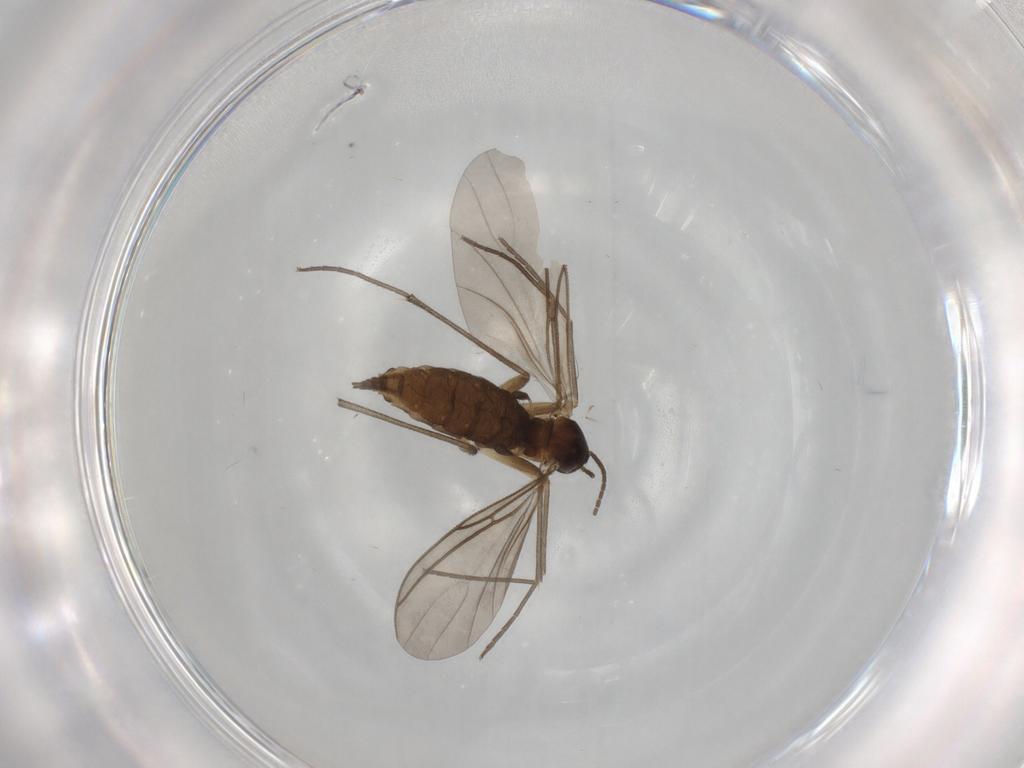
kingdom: Animalia
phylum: Arthropoda
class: Insecta
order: Diptera
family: Sciaridae
